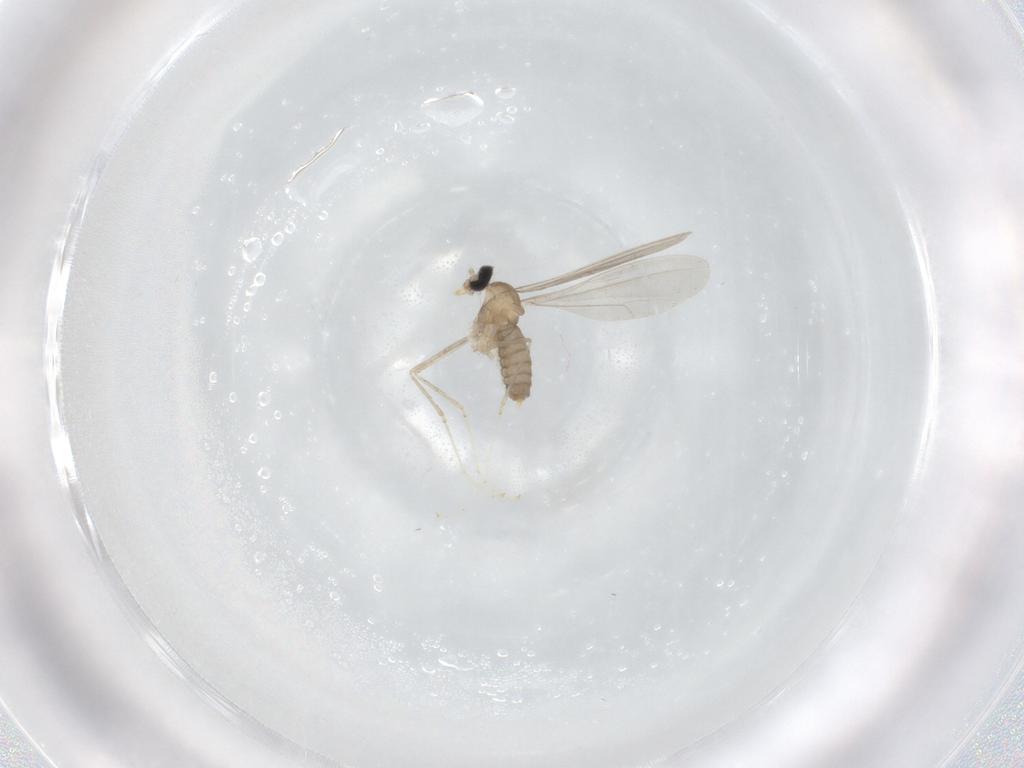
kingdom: Animalia
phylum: Arthropoda
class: Insecta
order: Diptera
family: Cecidomyiidae
